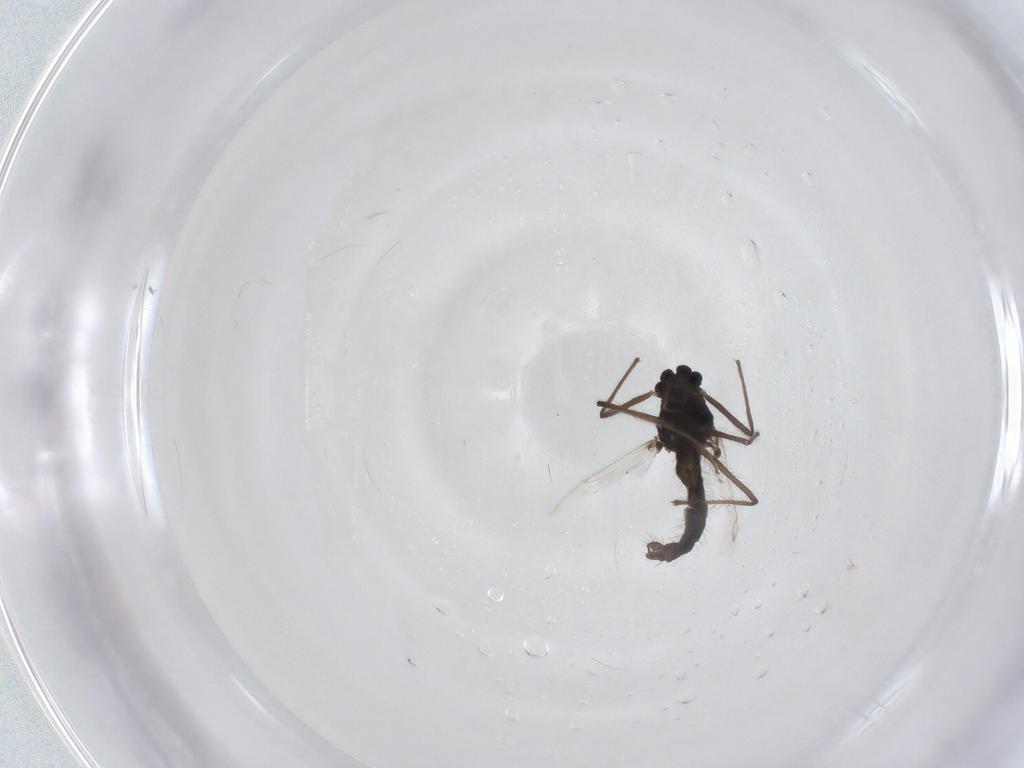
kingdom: Animalia
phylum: Arthropoda
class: Insecta
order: Diptera
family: Chironomidae
